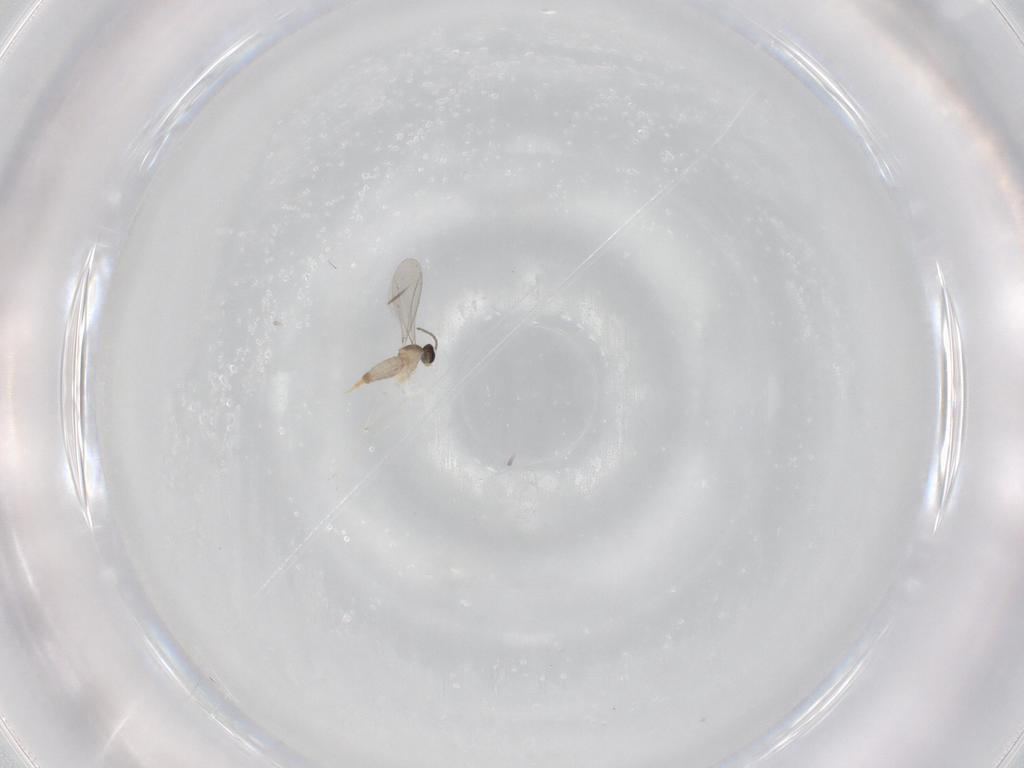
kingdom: Animalia
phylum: Arthropoda
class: Insecta
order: Diptera
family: Cecidomyiidae
